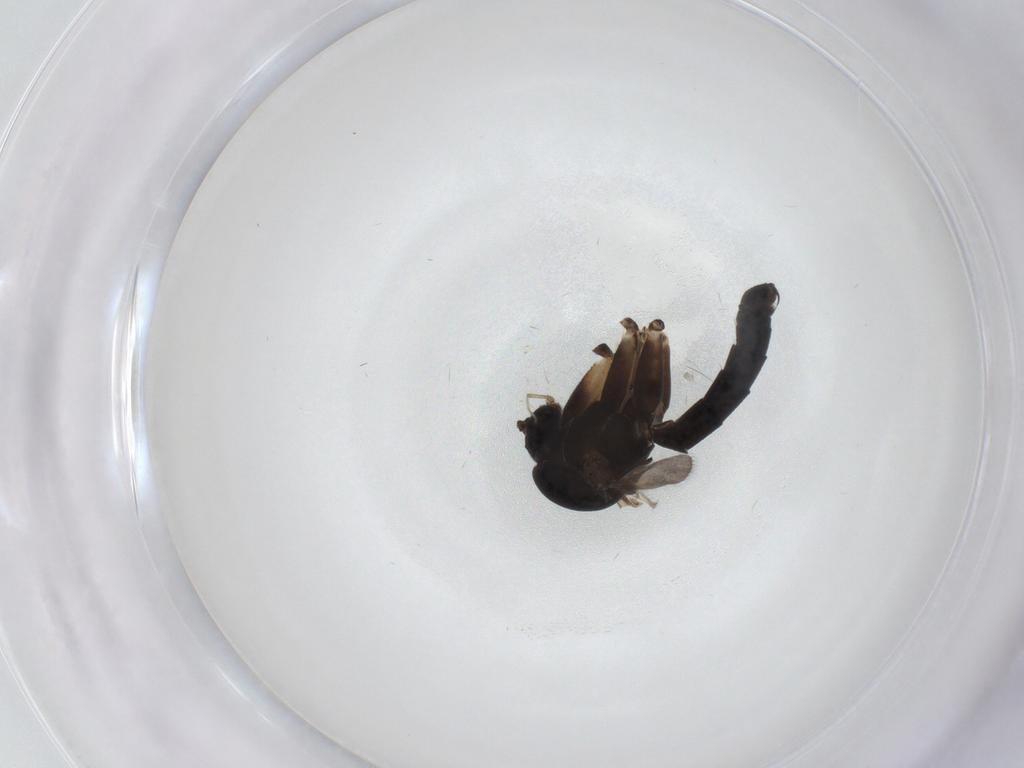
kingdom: Animalia
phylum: Arthropoda
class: Insecta
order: Diptera
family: Mycetophilidae
